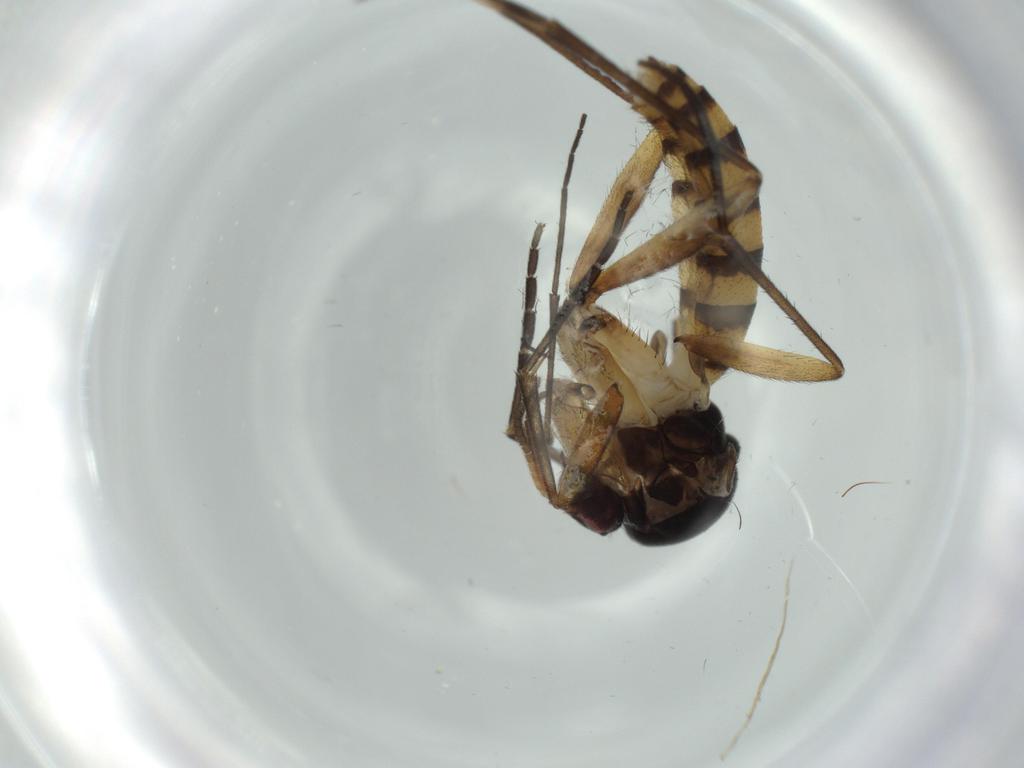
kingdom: Animalia
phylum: Arthropoda
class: Insecta
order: Diptera
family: Sciaridae
